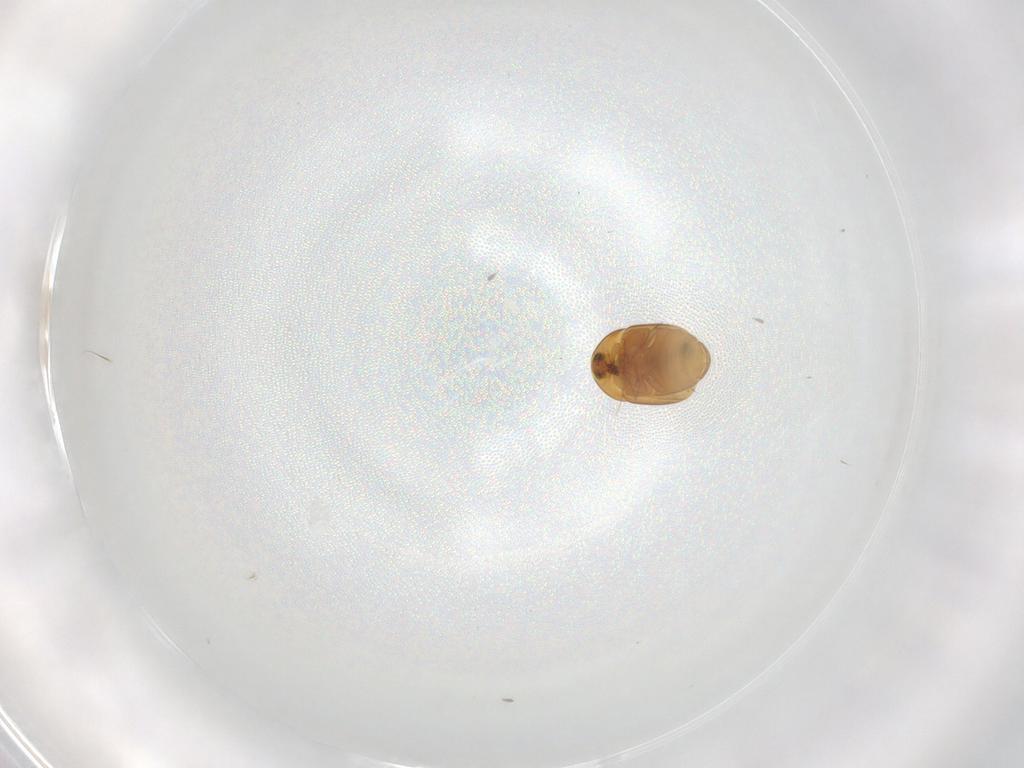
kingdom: Animalia
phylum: Arthropoda
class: Insecta
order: Coleoptera
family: Corylophidae
